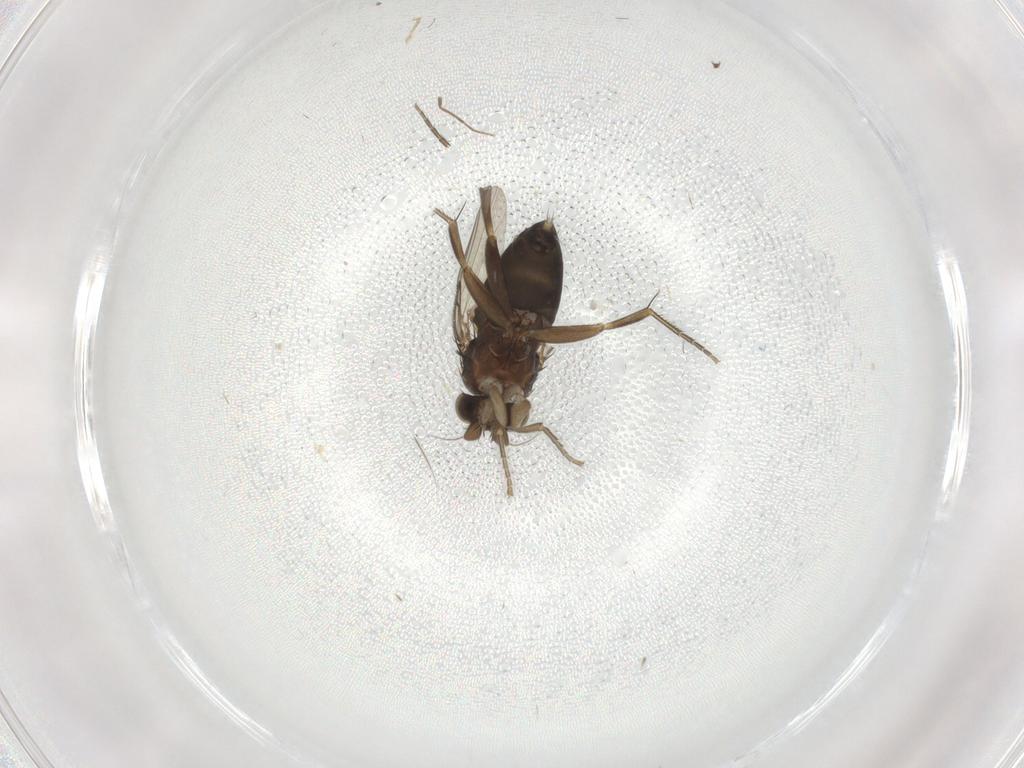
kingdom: Animalia
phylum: Arthropoda
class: Insecta
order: Diptera
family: Phoridae
